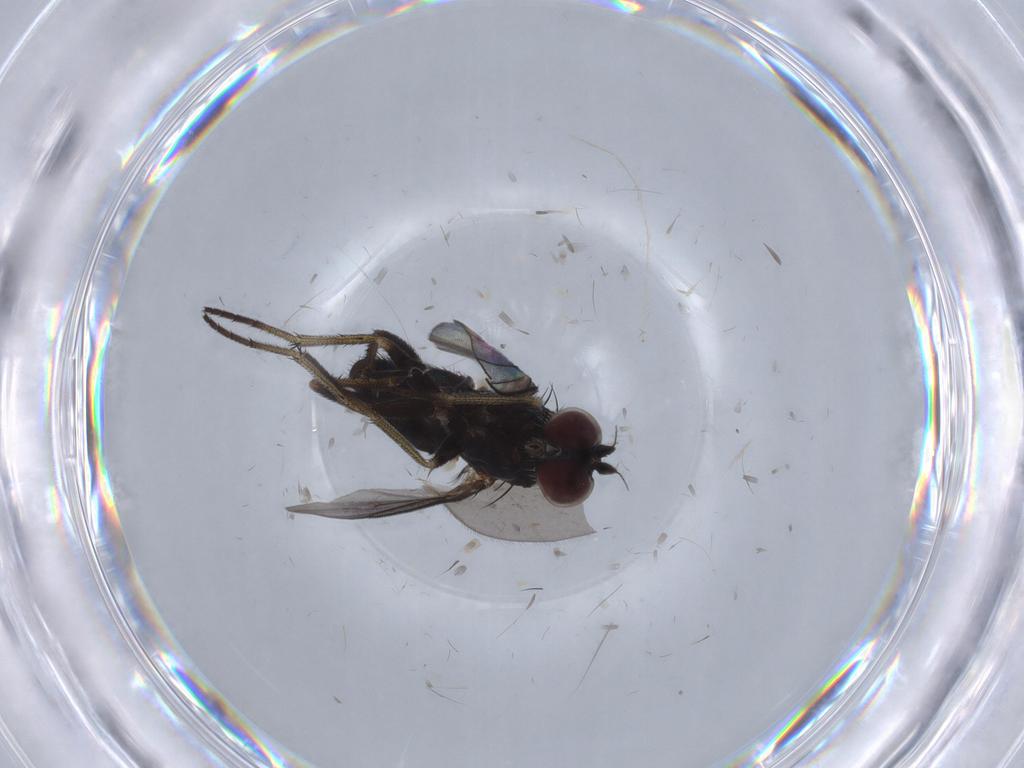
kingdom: Animalia
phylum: Arthropoda
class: Insecta
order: Diptera
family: Dolichopodidae
